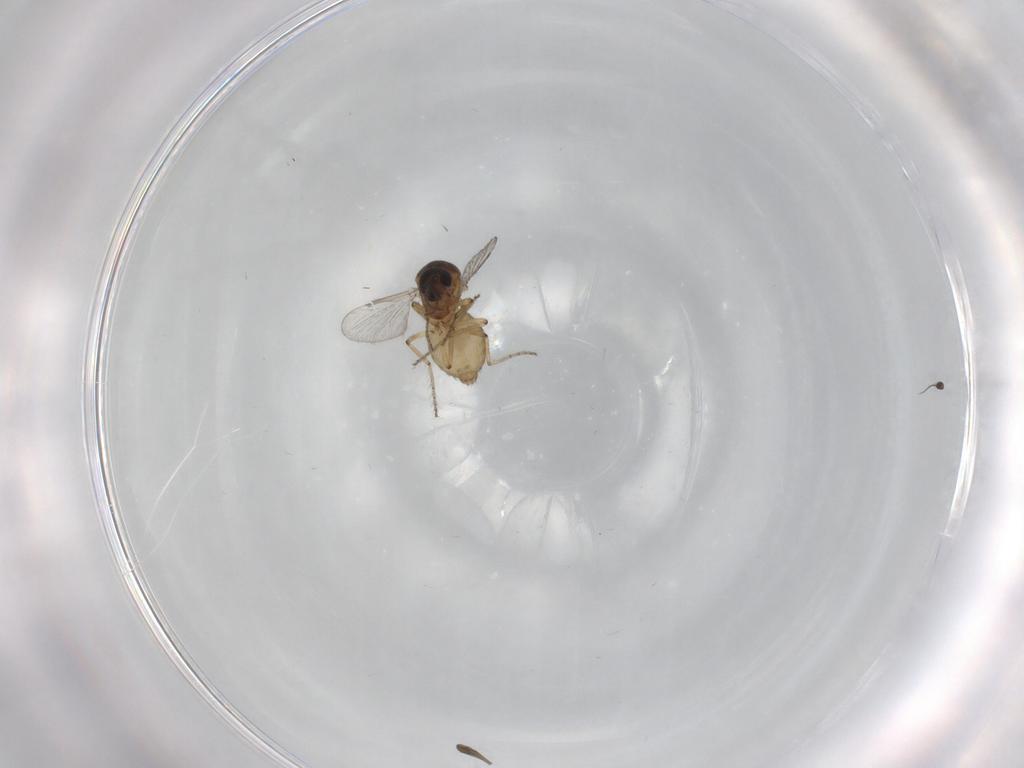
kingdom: Animalia
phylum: Arthropoda
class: Insecta
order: Diptera
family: Ceratopogonidae
